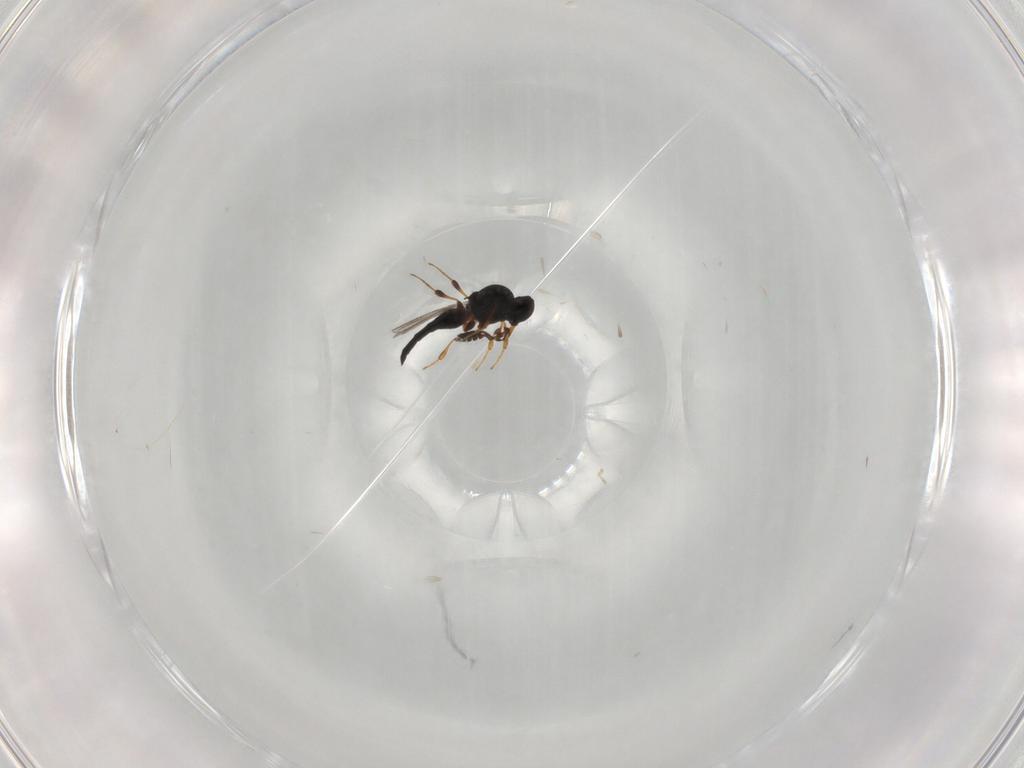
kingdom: Animalia
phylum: Arthropoda
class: Insecta
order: Hymenoptera
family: Platygastridae
